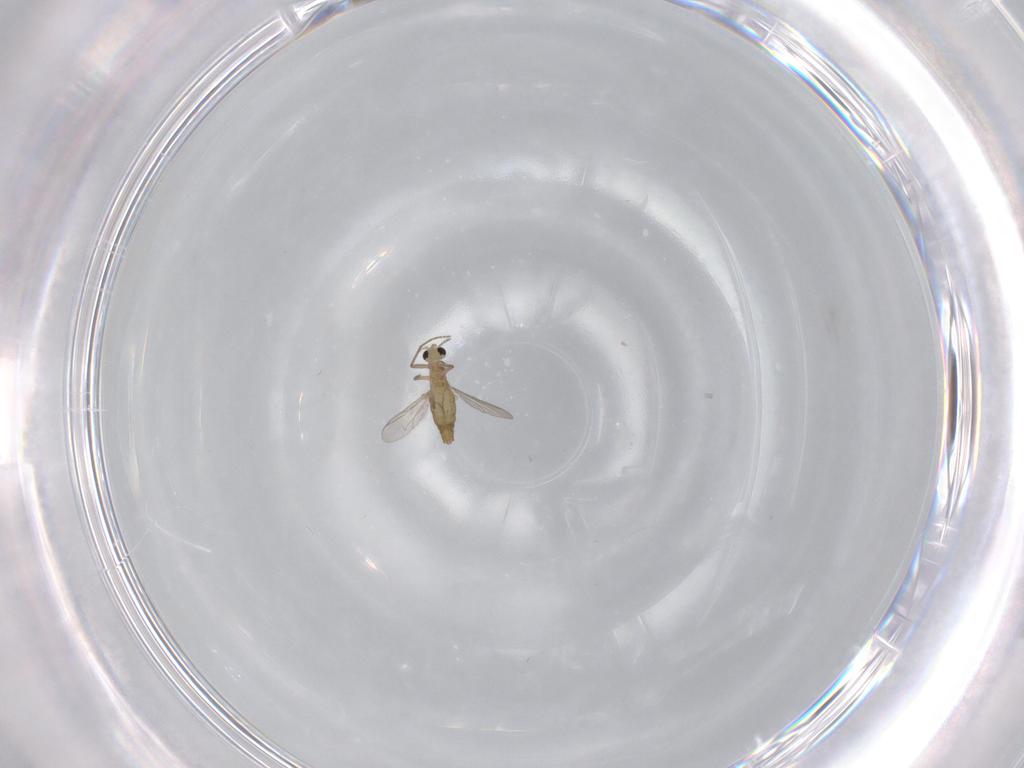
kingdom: Animalia
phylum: Arthropoda
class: Insecta
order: Diptera
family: Chironomidae
